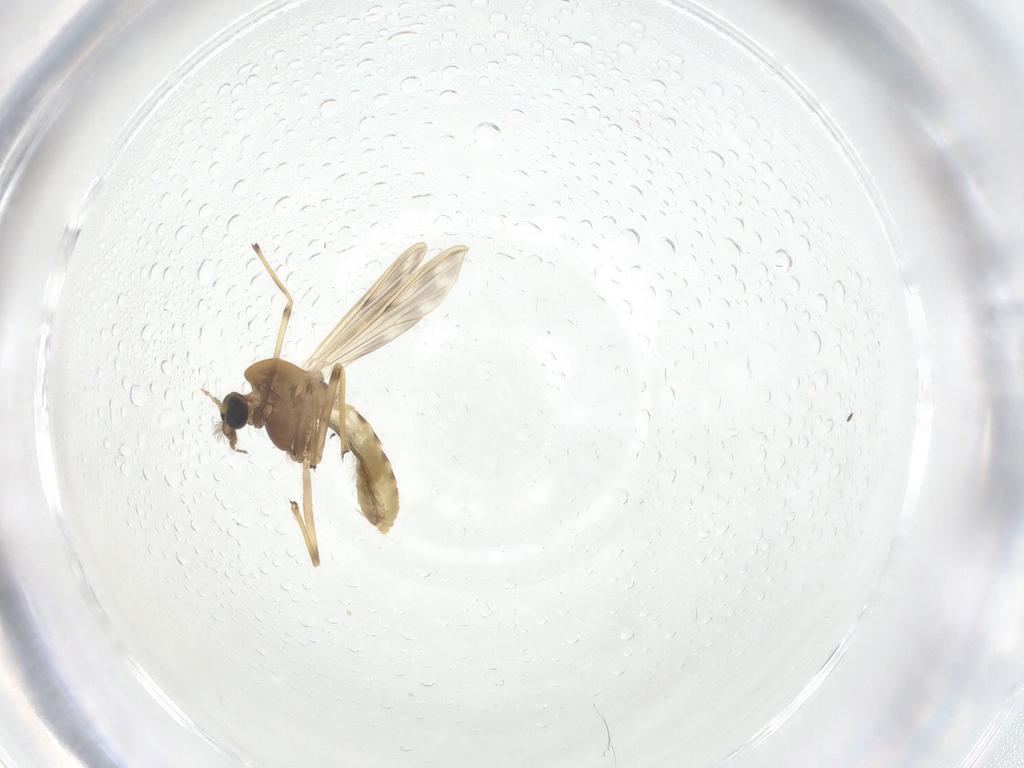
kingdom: Animalia
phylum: Arthropoda
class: Insecta
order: Diptera
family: Chironomidae
